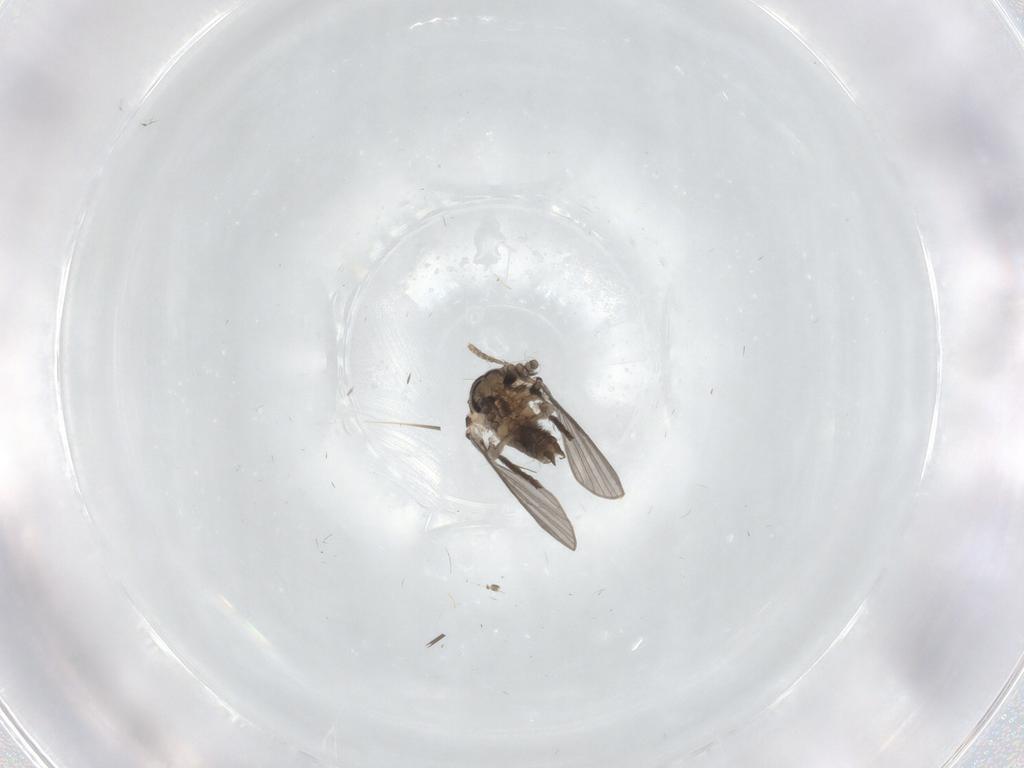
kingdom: Animalia
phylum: Arthropoda
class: Insecta
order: Diptera
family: Psychodidae
